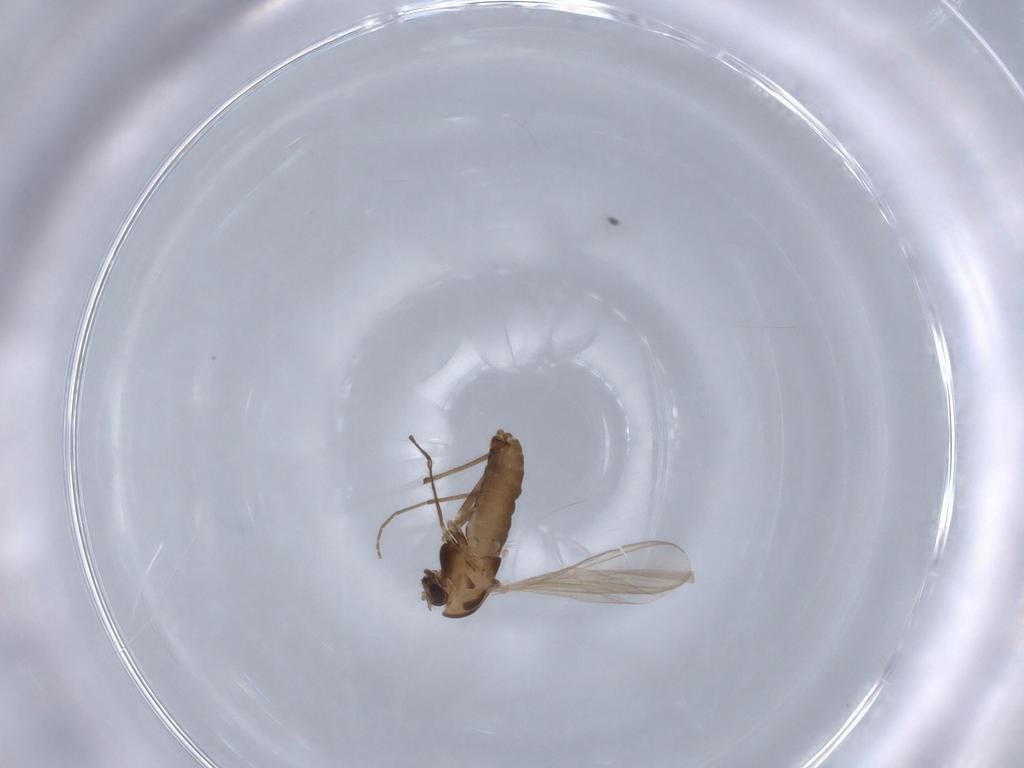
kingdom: Animalia
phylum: Arthropoda
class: Insecta
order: Diptera
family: Chironomidae
